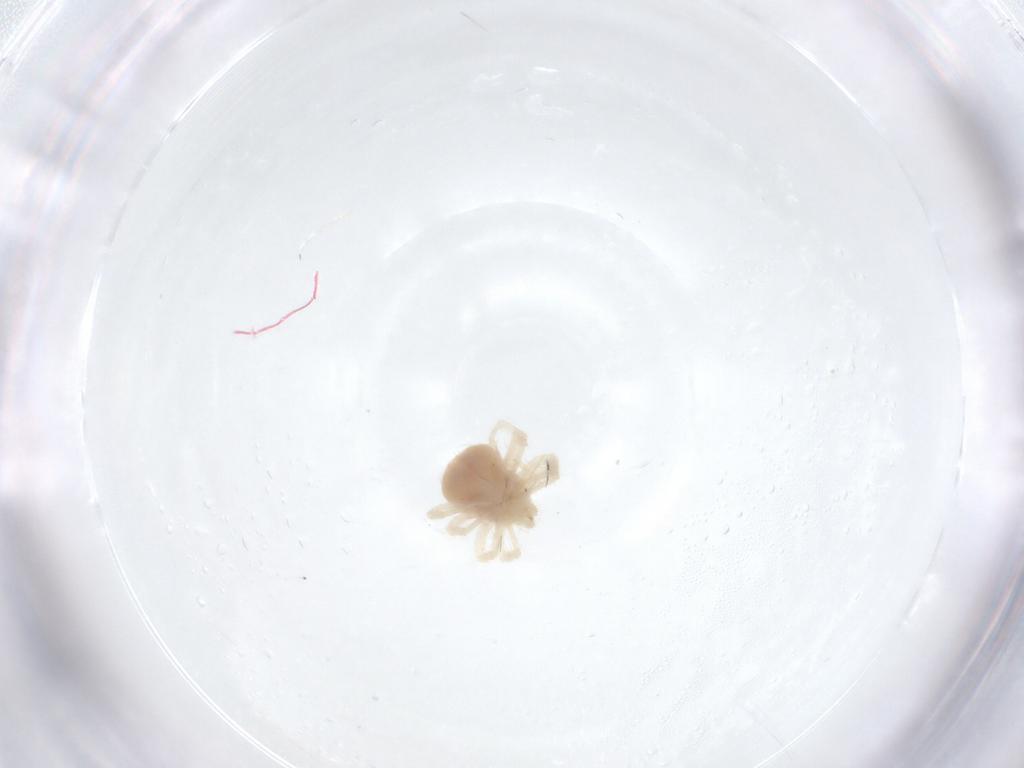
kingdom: Animalia
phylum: Arthropoda
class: Arachnida
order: Trombidiformes
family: Anystidae
